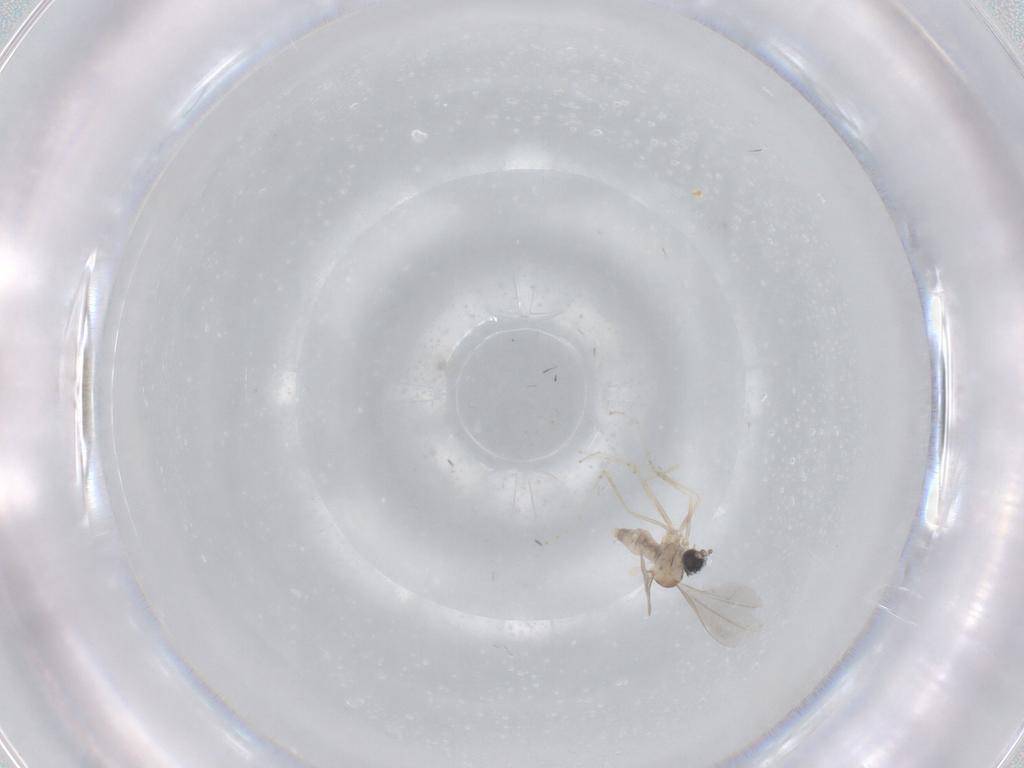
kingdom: Animalia
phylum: Arthropoda
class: Insecta
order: Diptera
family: Cecidomyiidae
